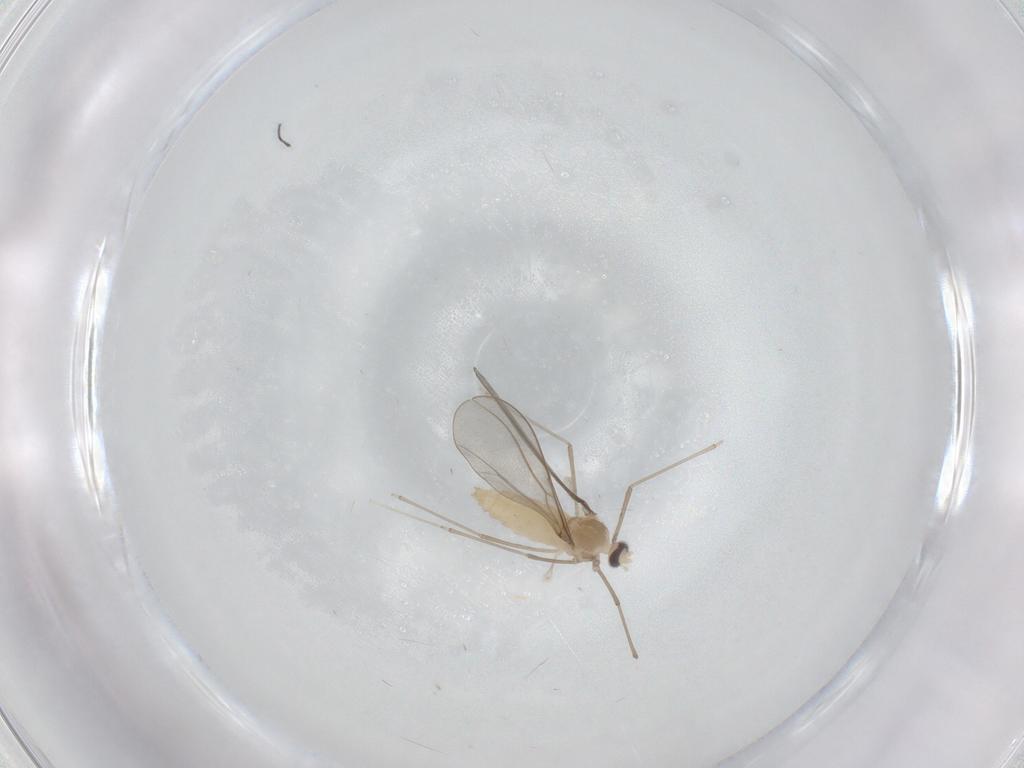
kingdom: Animalia
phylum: Arthropoda
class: Insecta
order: Diptera
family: Cecidomyiidae
